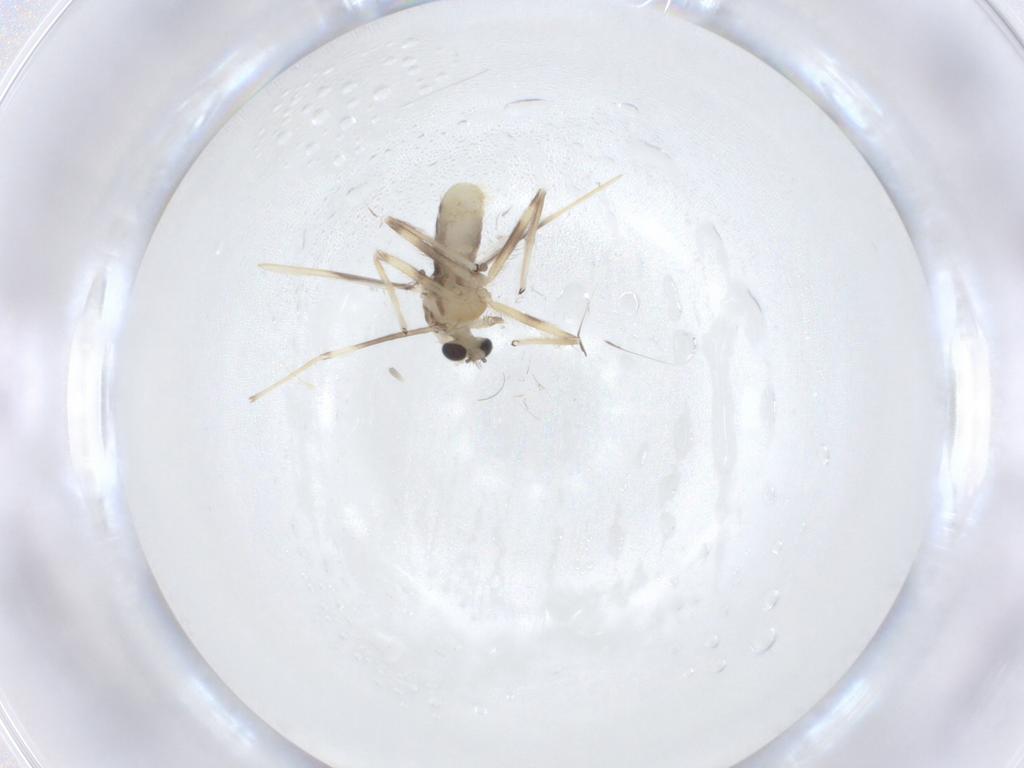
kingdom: Animalia
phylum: Arthropoda
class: Insecta
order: Diptera
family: Chironomidae
